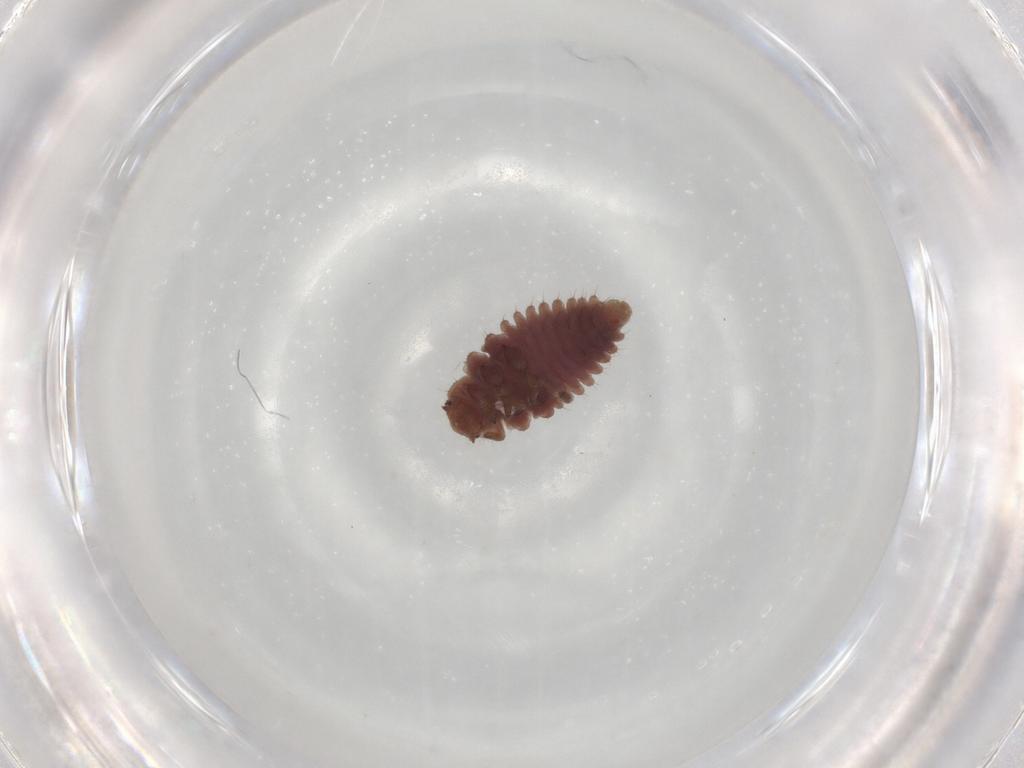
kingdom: Animalia
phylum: Arthropoda
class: Insecta
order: Coleoptera
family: Coccinellidae
